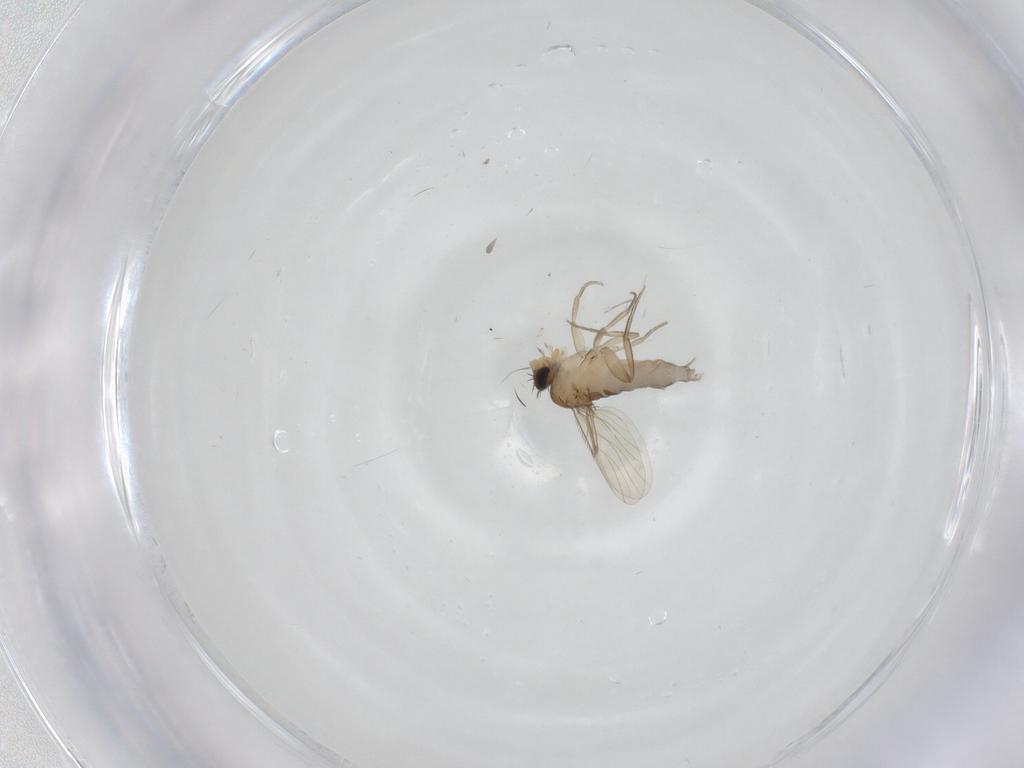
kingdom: Animalia
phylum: Arthropoda
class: Insecta
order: Diptera
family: Phoridae
